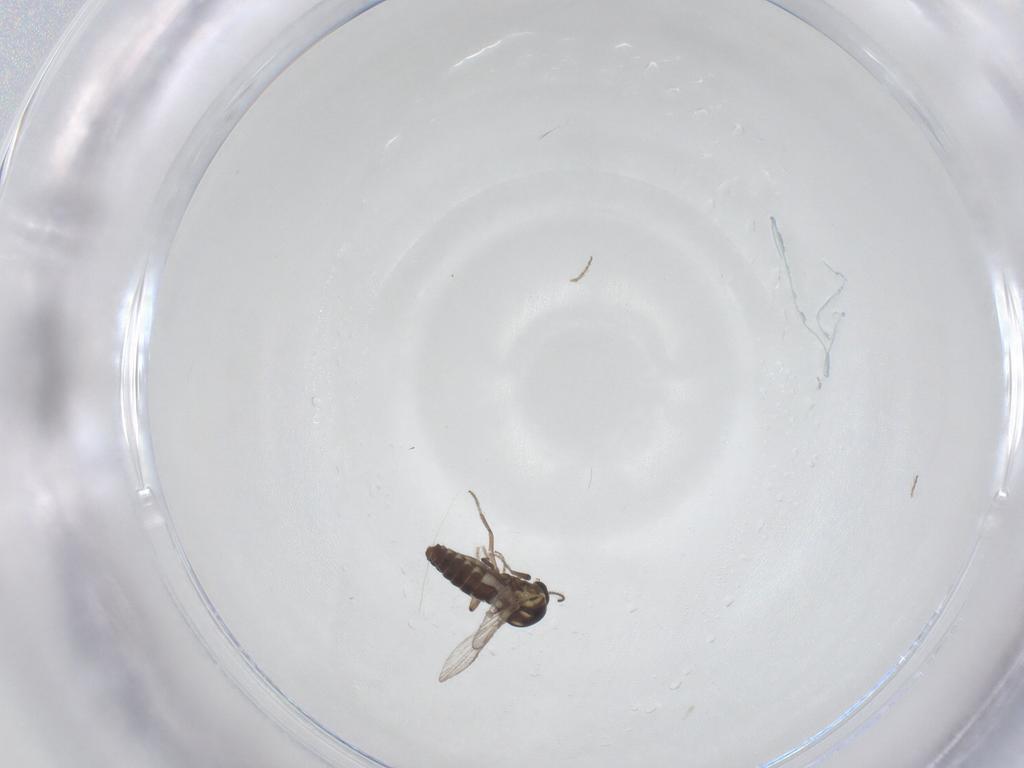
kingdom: Animalia
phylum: Arthropoda
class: Insecta
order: Diptera
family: Ceratopogonidae
